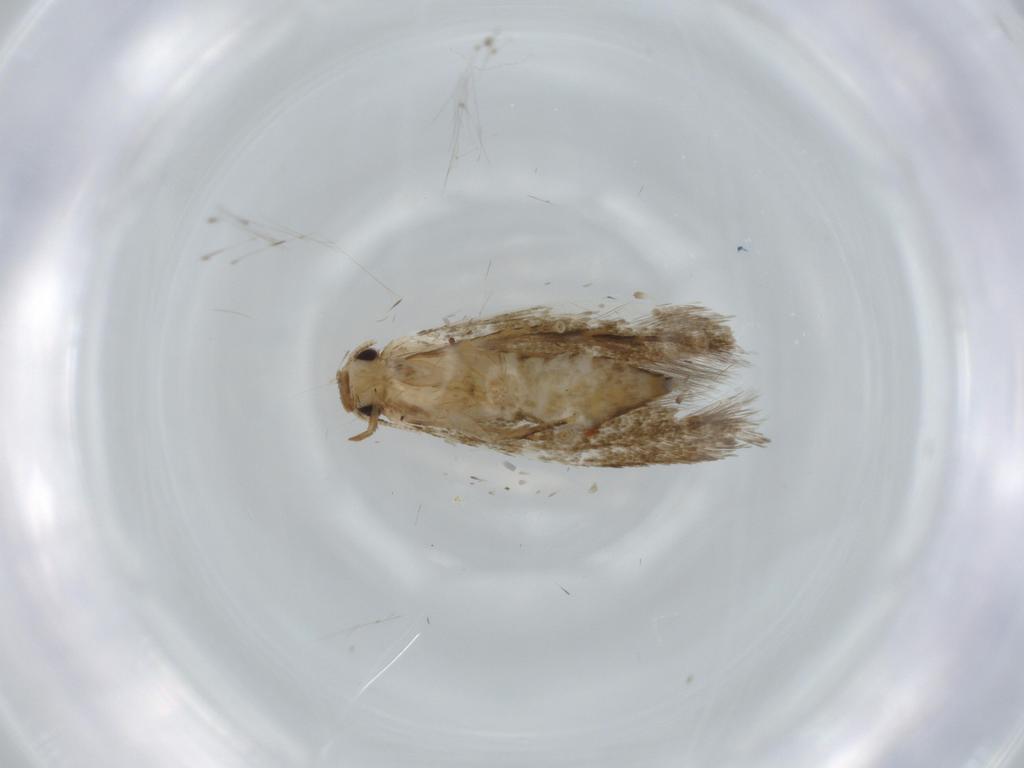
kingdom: Animalia
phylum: Arthropoda
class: Insecta
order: Lepidoptera
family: Tineidae
